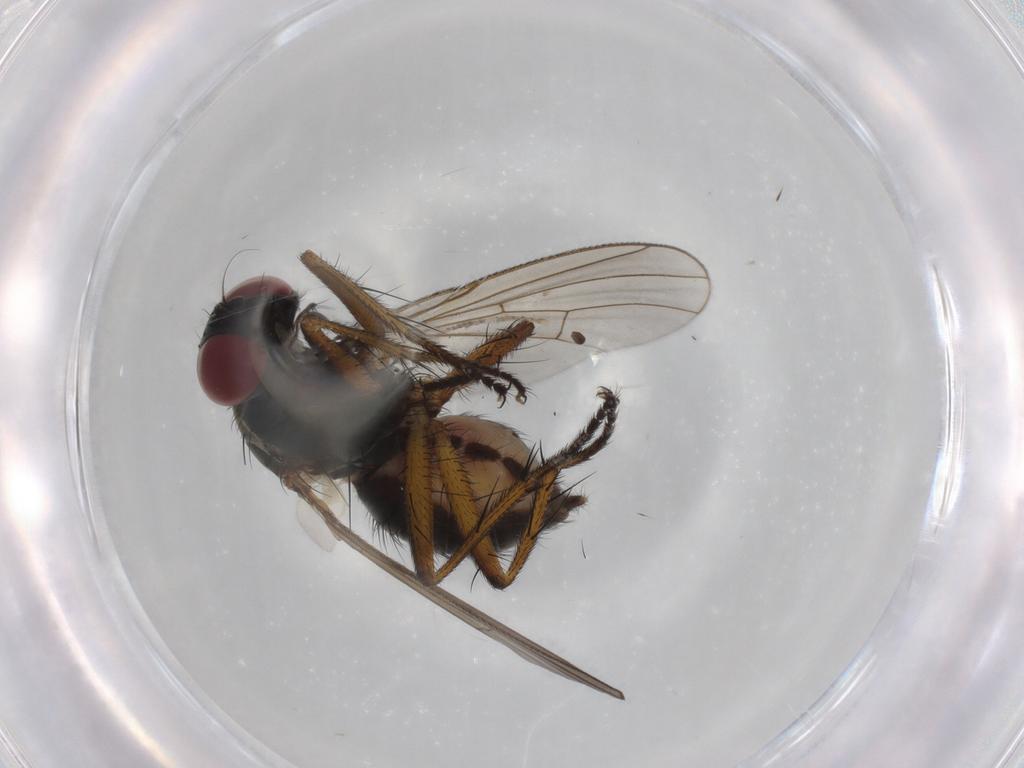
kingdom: Animalia
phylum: Arthropoda
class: Insecta
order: Diptera
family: Muscidae
